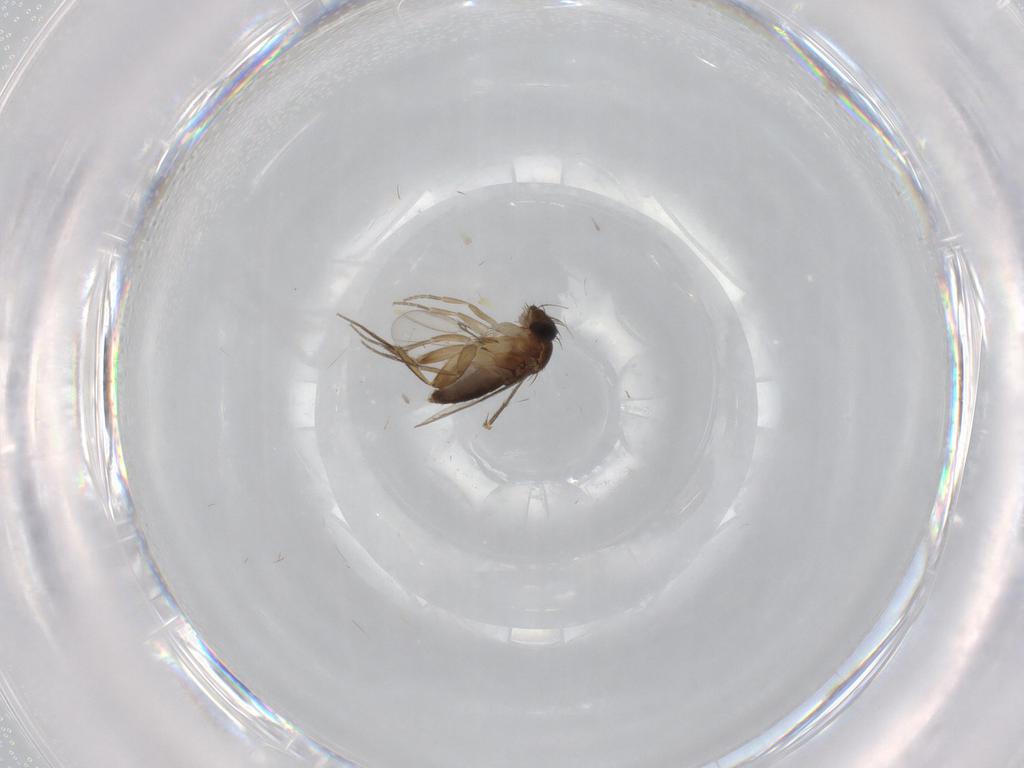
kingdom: Animalia
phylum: Arthropoda
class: Insecta
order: Diptera
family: Phoridae
